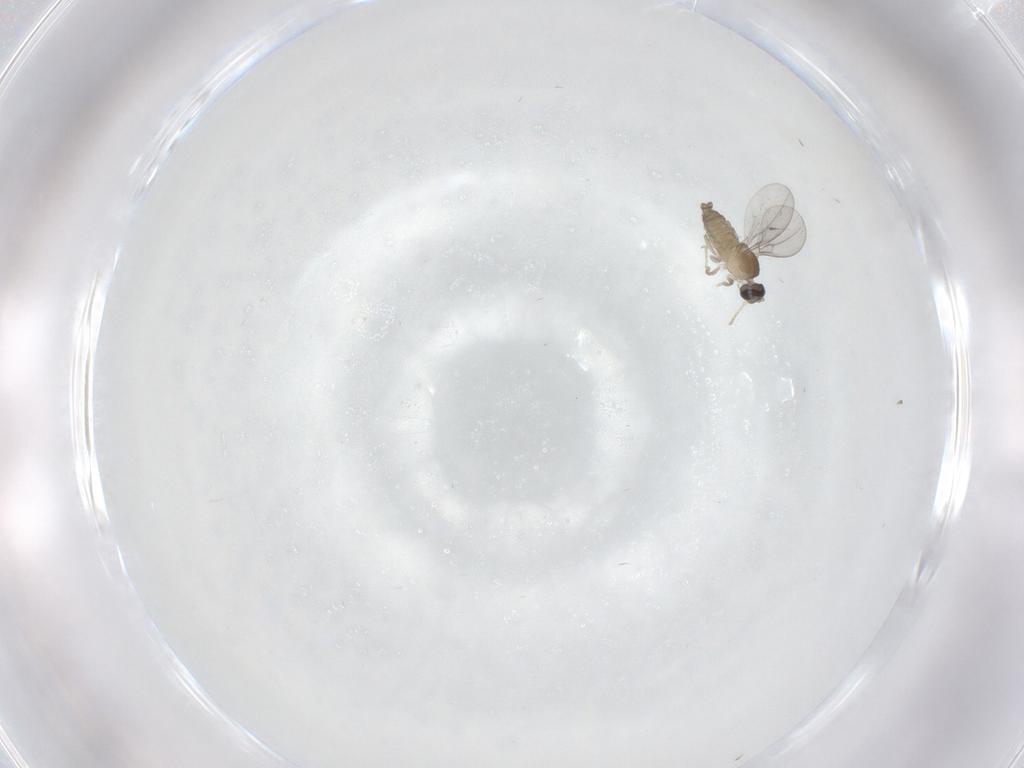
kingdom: Animalia
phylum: Arthropoda
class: Insecta
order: Diptera
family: Cecidomyiidae
